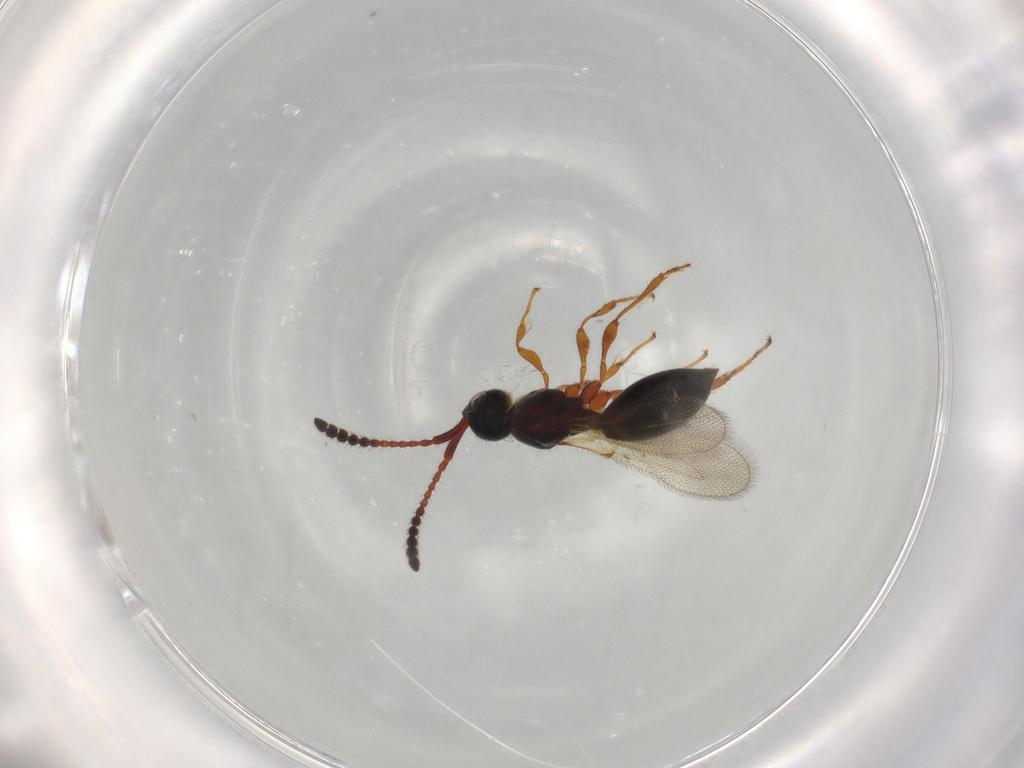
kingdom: Animalia
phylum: Arthropoda
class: Insecta
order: Hymenoptera
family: Diapriidae
